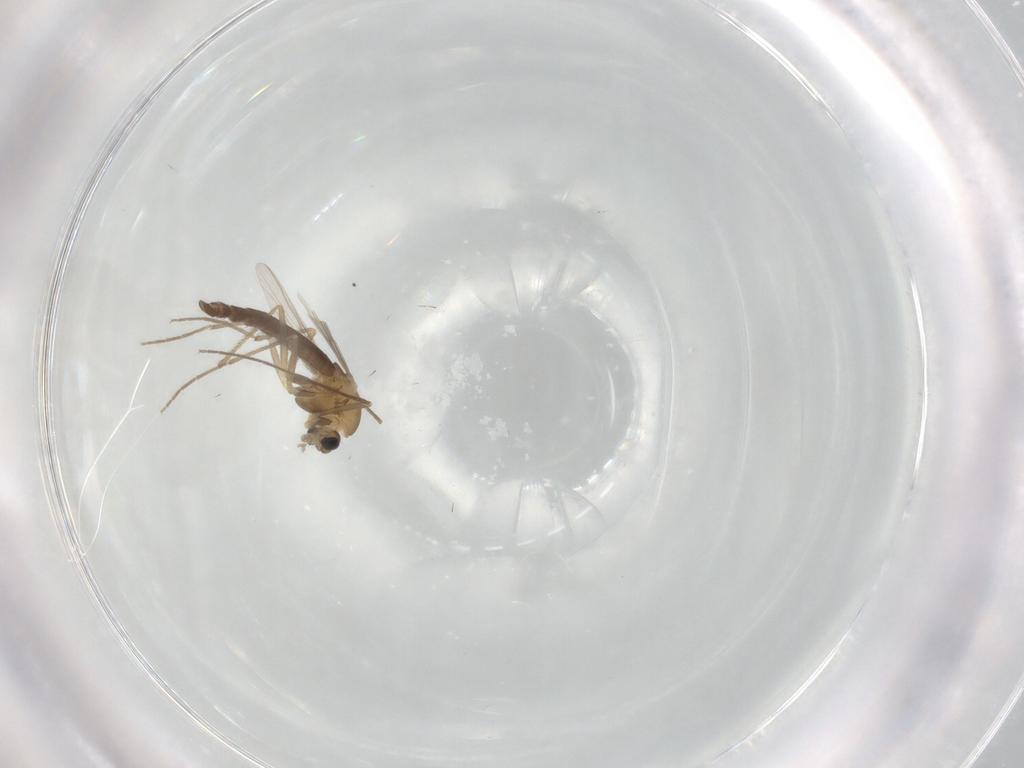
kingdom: Animalia
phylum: Arthropoda
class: Insecta
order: Diptera
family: Chironomidae
